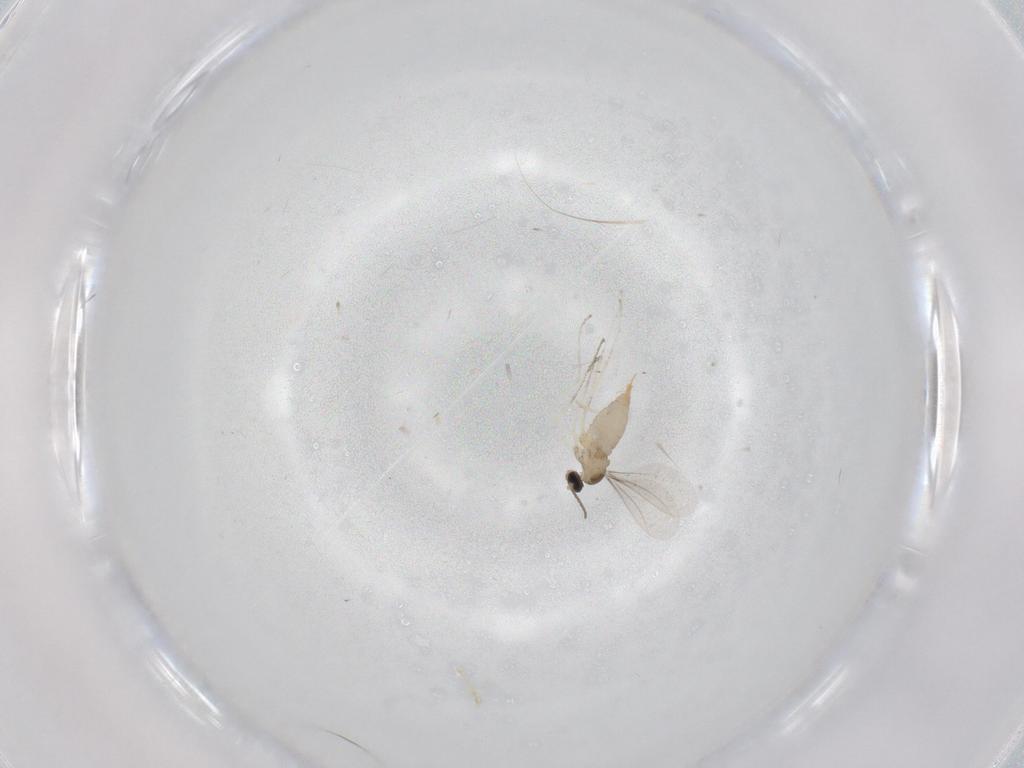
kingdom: Animalia
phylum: Arthropoda
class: Insecta
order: Diptera
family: Cecidomyiidae
